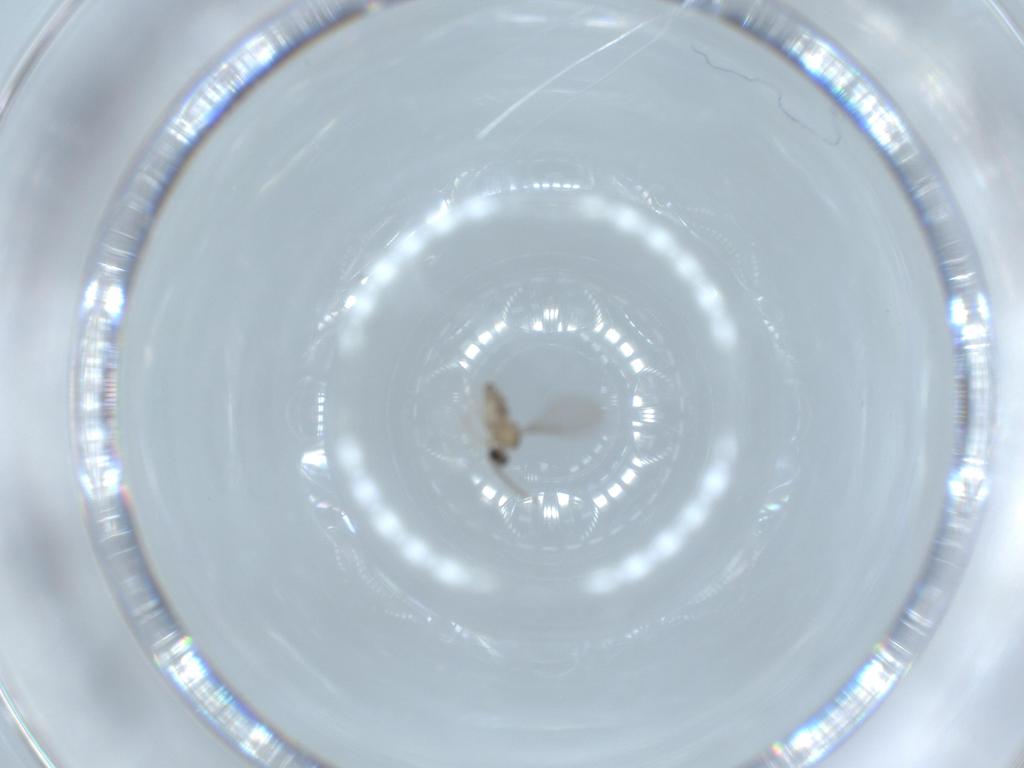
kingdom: Animalia
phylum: Arthropoda
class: Insecta
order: Diptera
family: Cecidomyiidae
